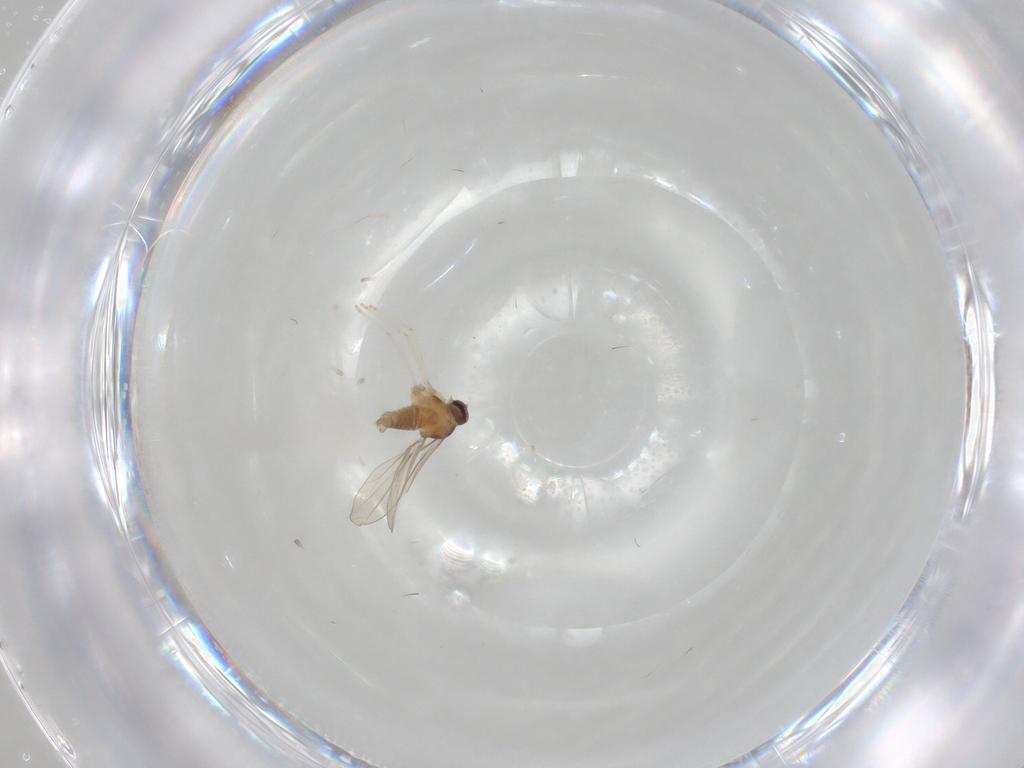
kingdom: Animalia
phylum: Arthropoda
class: Insecta
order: Diptera
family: Cecidomyiidae
